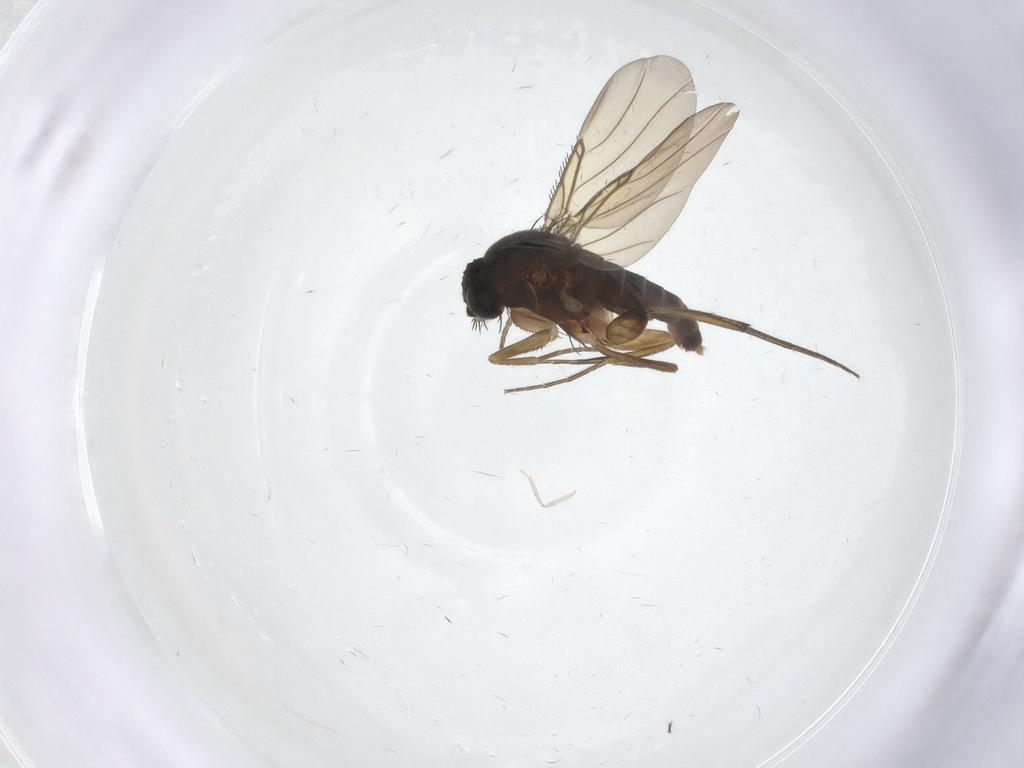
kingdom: Animalia
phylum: Arthropoda
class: Insecta
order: Diptera
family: Phoridae
